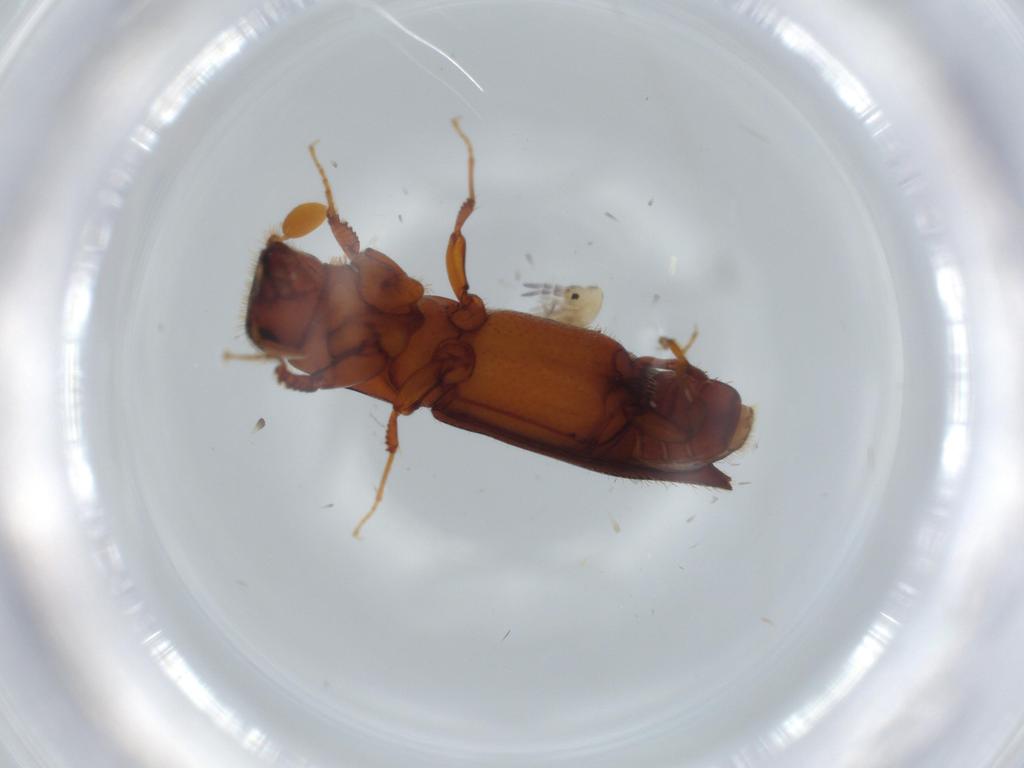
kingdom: Animalia
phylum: Arthropoda
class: Insecta
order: Coleoptera
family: Curculionidae
